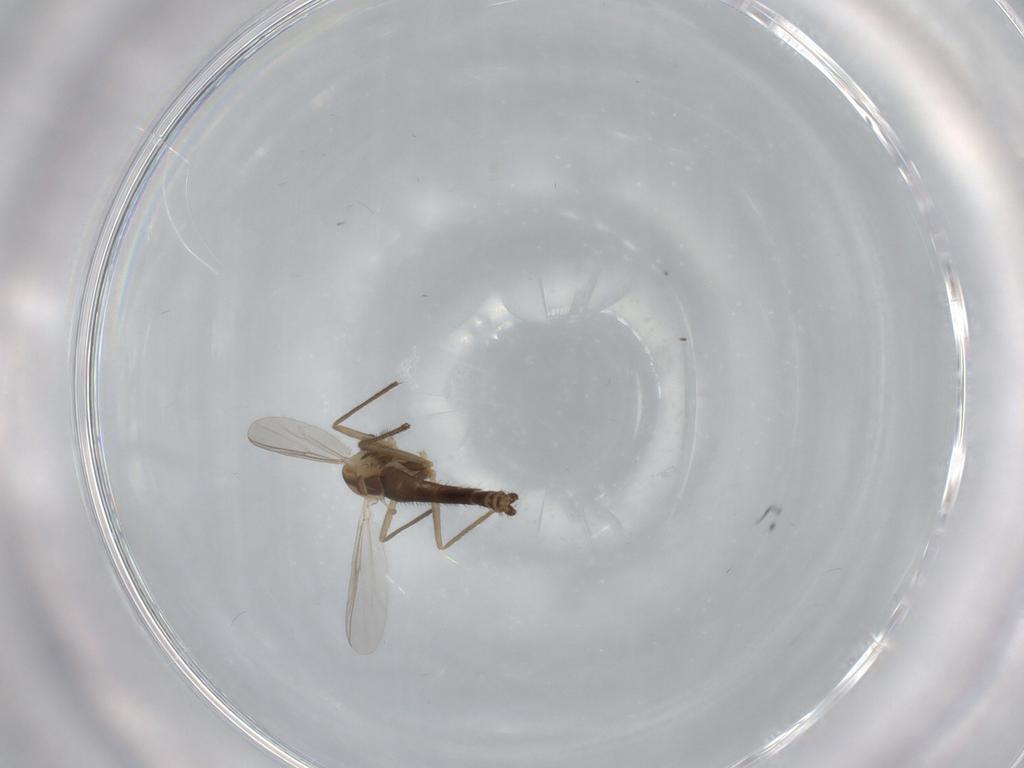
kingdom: Animalia
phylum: Arthropoda
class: Insecta
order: Diptera
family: Chironomidae
